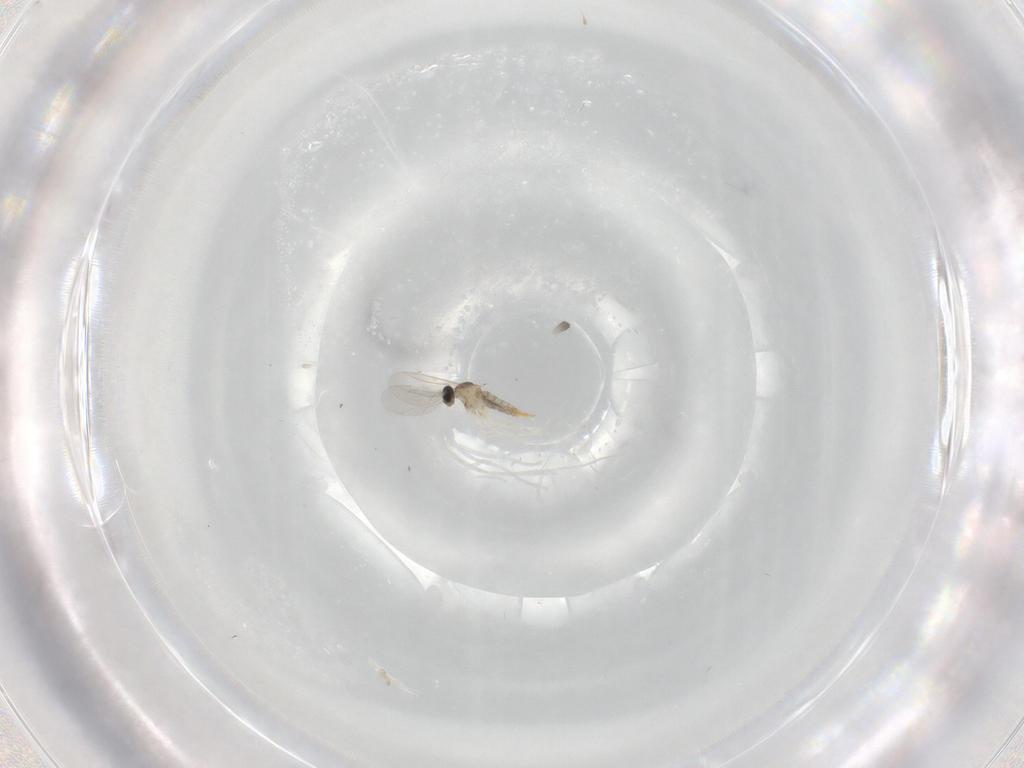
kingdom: Animalia
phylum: Arthropoda
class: Insecta
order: Diptera
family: Cecidomyiidae
